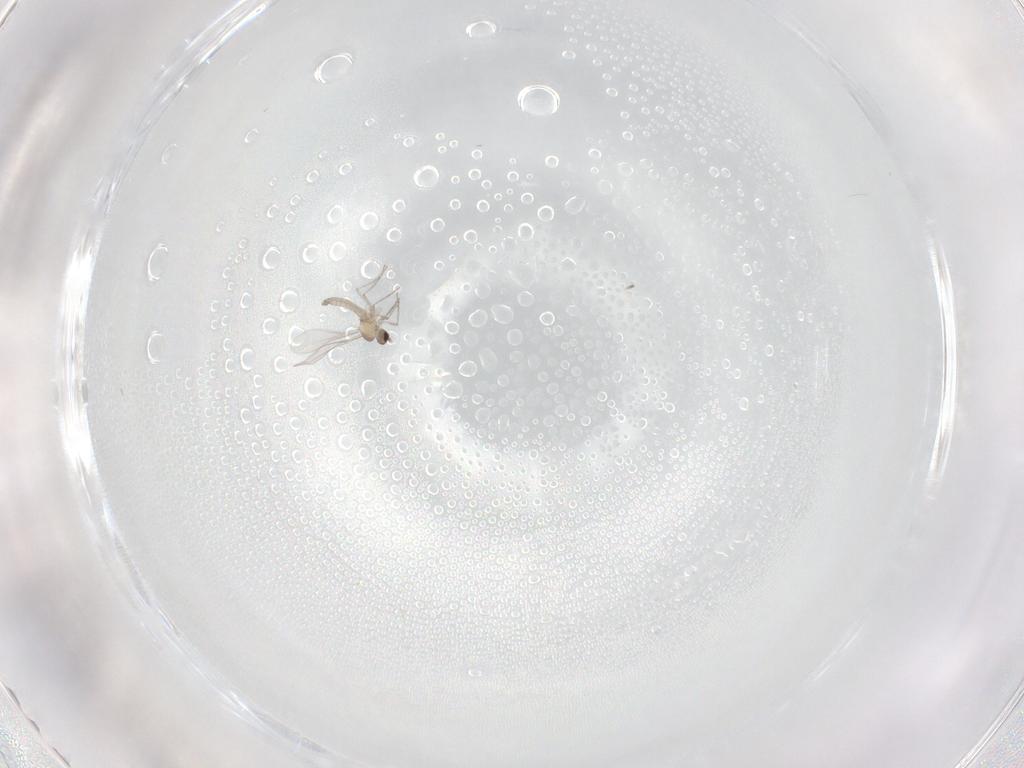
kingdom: Animalia
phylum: Arthropoda
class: Insecta
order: Diptera
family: Cecidomyiidae
